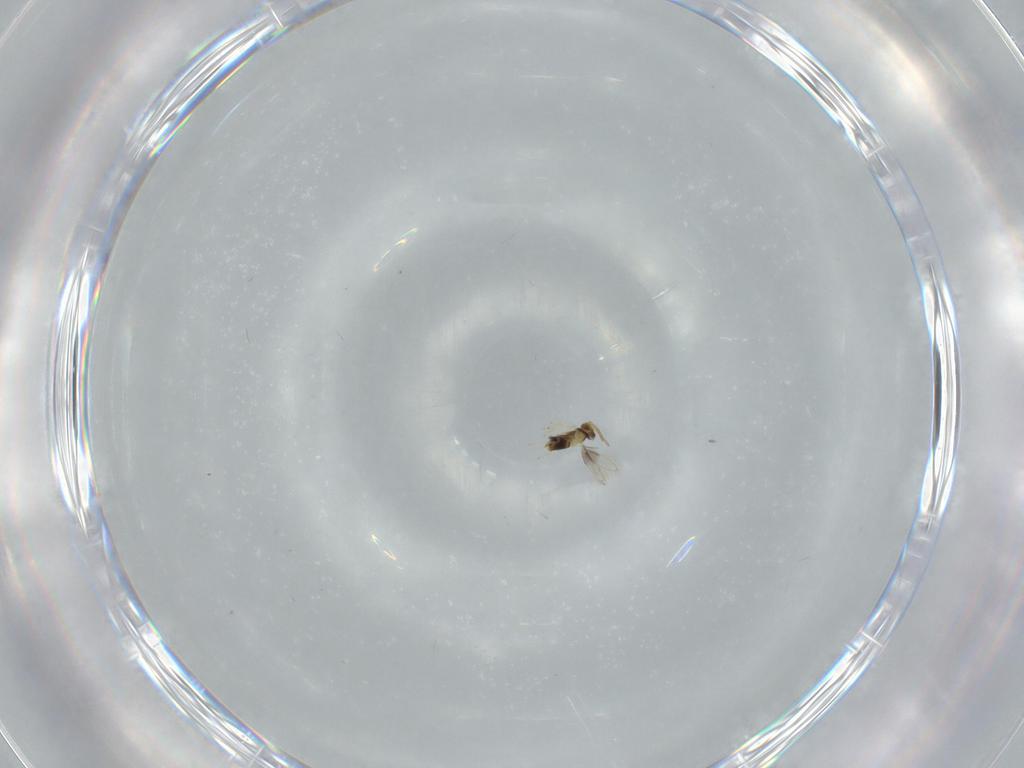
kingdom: Animalia
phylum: Arthropoda
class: Insecta
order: Hymenoptera
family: Aphelinidae
